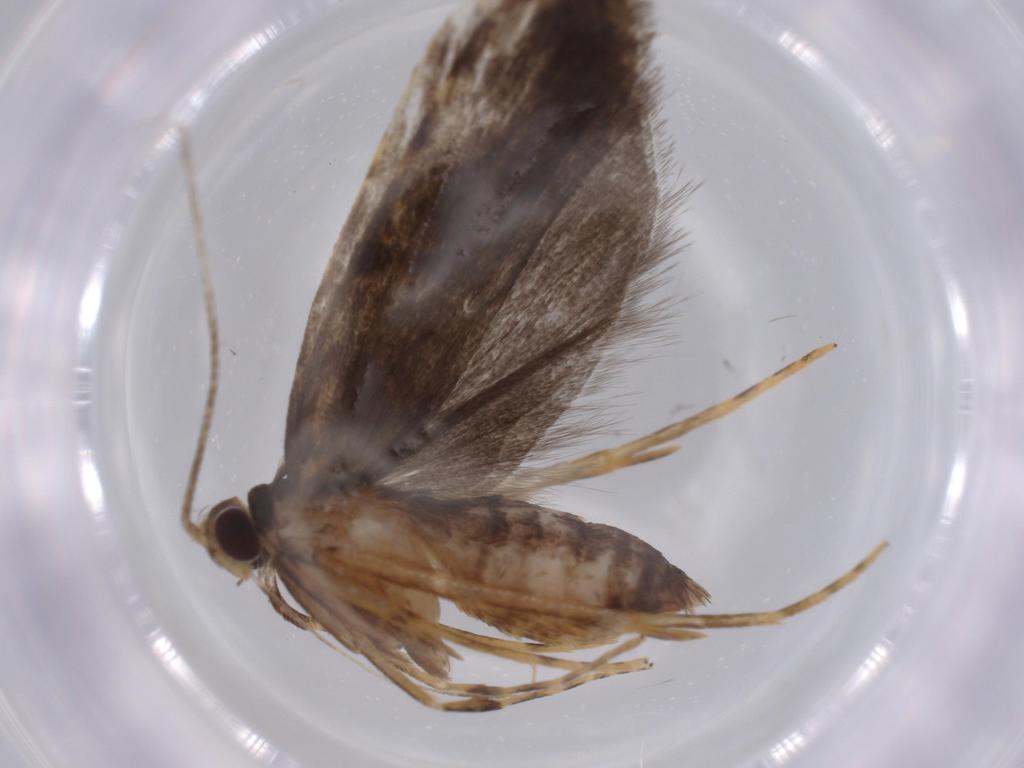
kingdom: Animalia
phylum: Arthropoda
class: Insecta
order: Lepidoptera
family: Autostichidae
